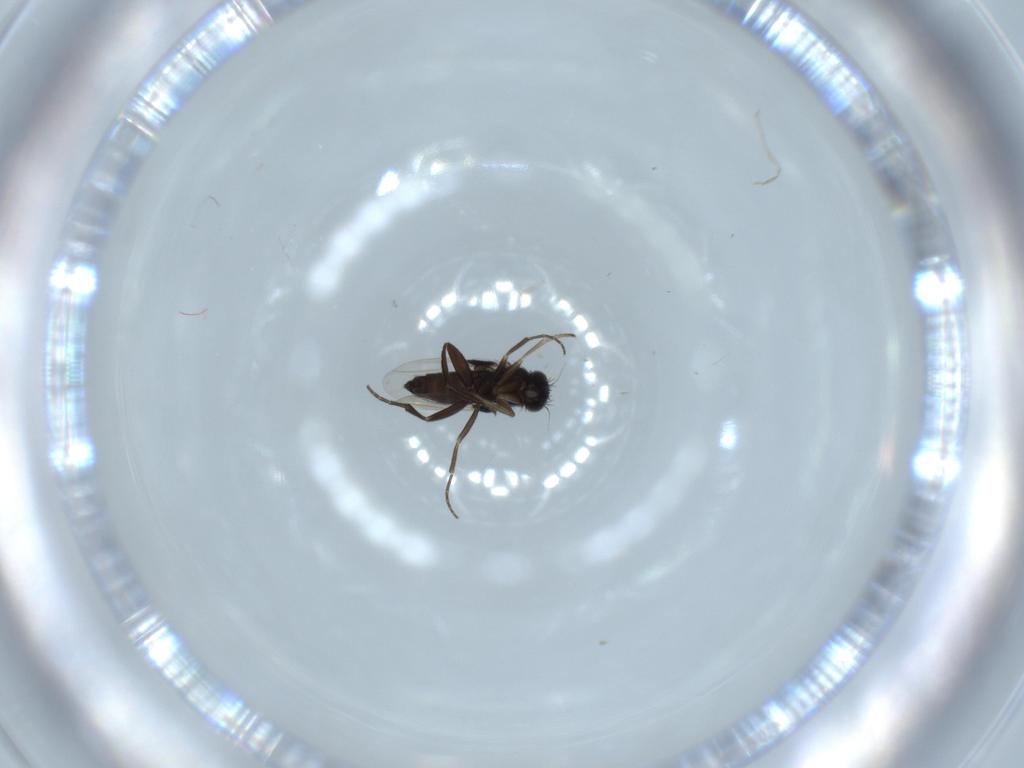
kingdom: Animalia
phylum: Arthropoda
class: Insecta
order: Diptera
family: Phoridae
